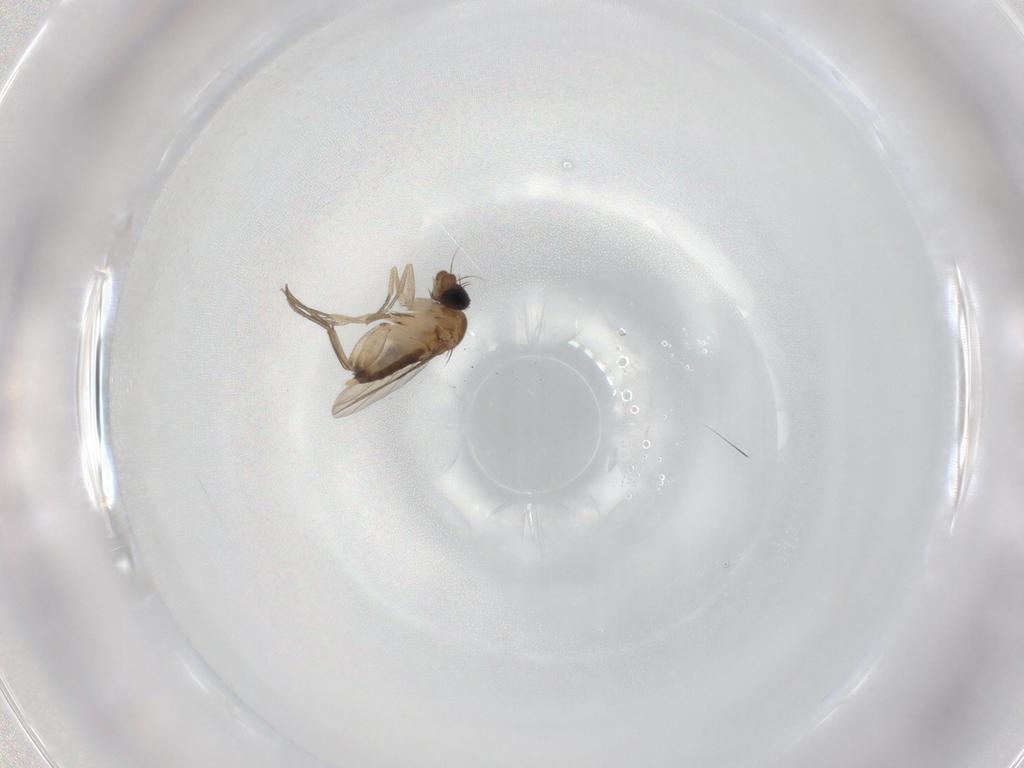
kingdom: Animalia
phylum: Arthropoda
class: Insecta
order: Diptera
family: Phoridae
